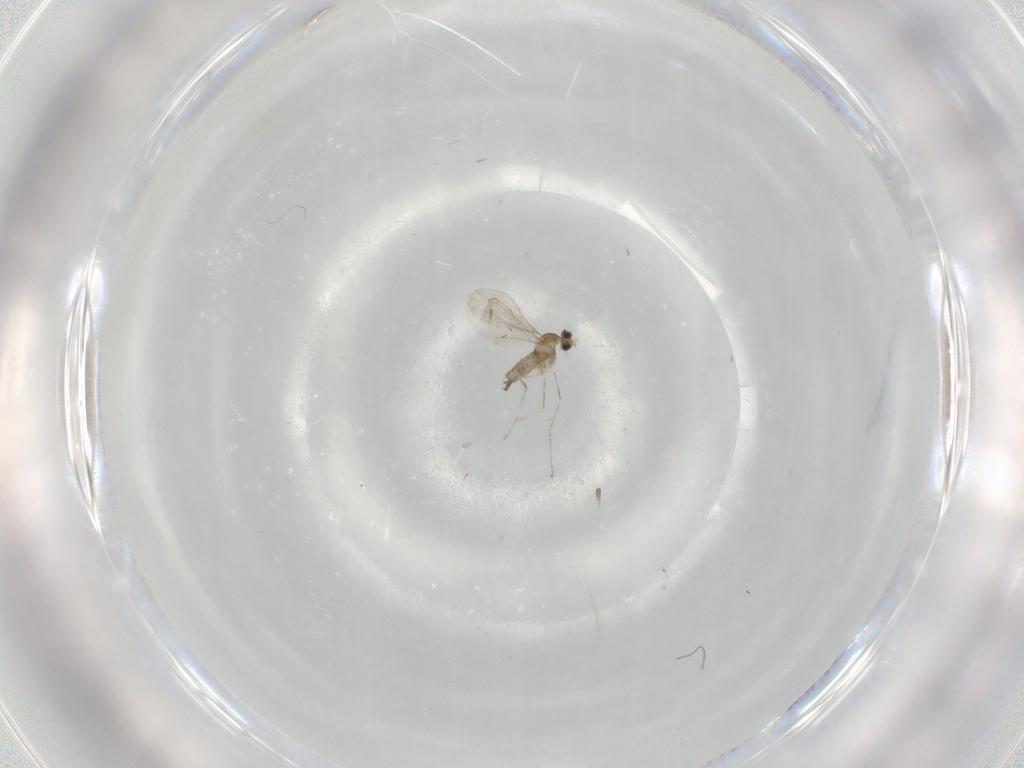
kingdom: Animalia
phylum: Arthropoda
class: Insecta
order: Diptera
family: Cecidomyiidae
